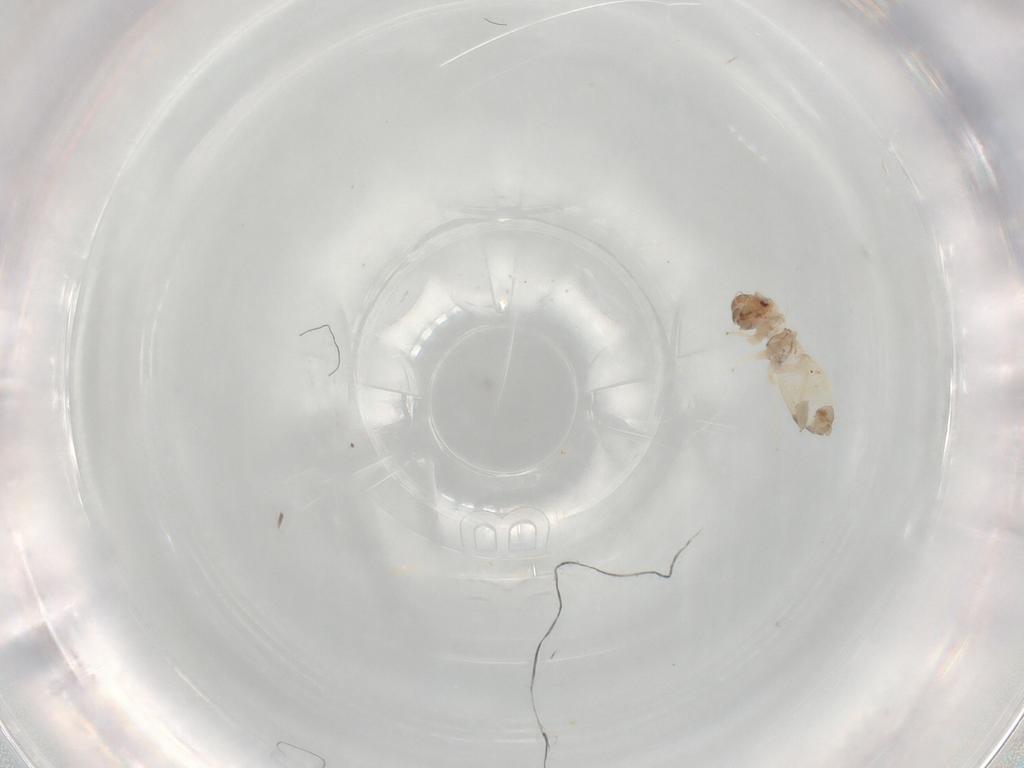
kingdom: Animalia
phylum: Arthropoda
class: Insecta
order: Psocodea
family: Archipsocidae
